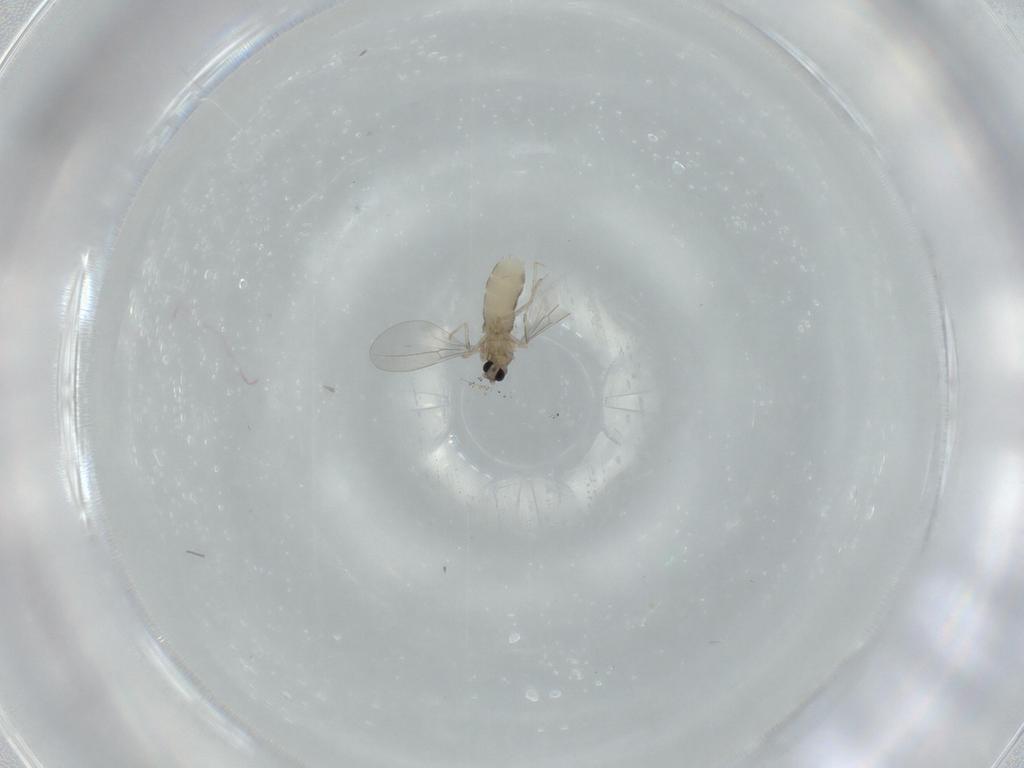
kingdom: Animalia
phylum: Arthropoda
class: Insecta
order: Diptera
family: Cecidomyiidae
